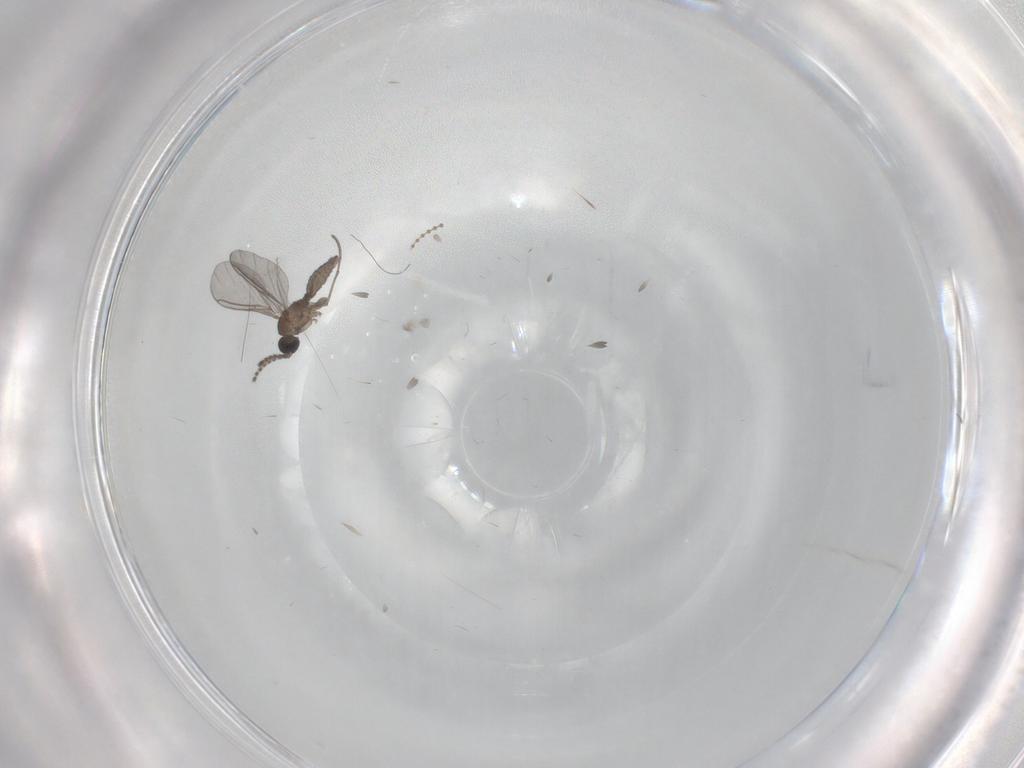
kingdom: Animalia
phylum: Arthropoda
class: Insecta
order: Diptera
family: Sciaridae
